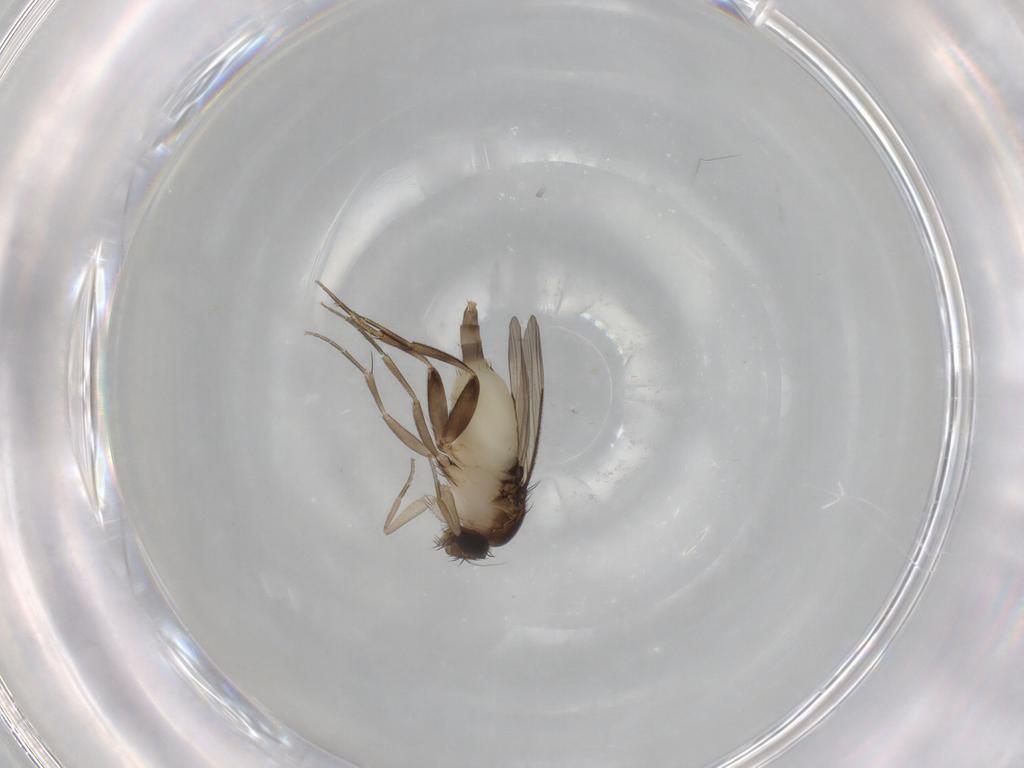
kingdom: Animalia
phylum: Arthropoda
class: Insecta
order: Diptera
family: Phoridae
